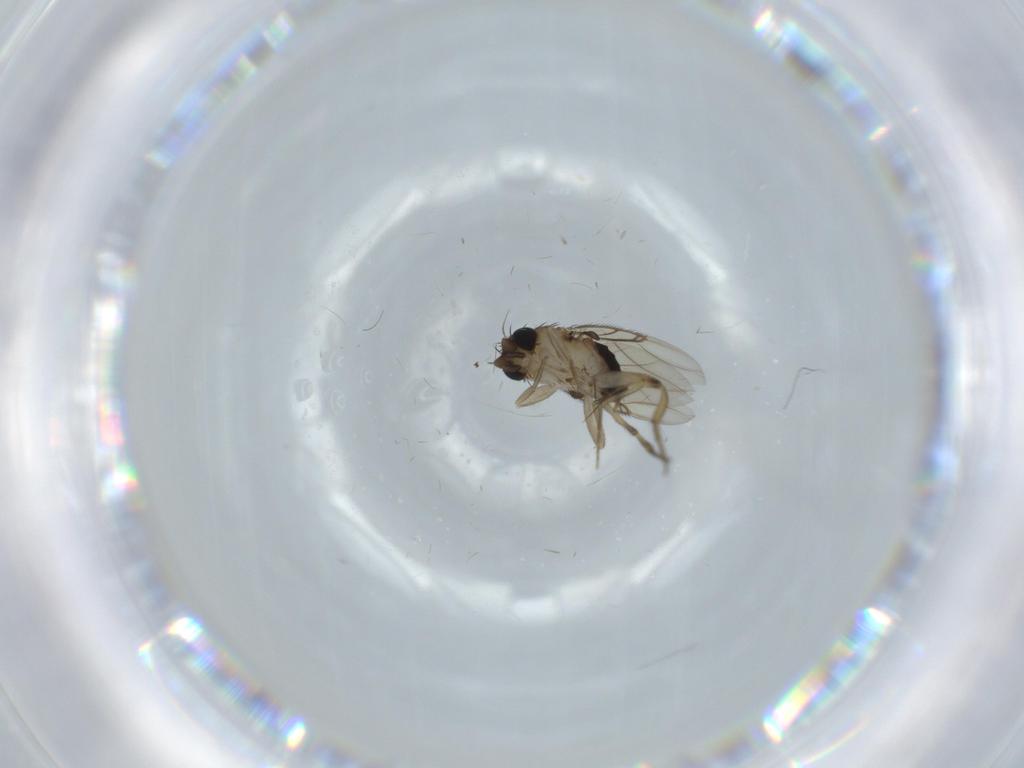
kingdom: Animalia
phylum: Arthropoda
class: Insecta
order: Diptera
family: Phoridae
